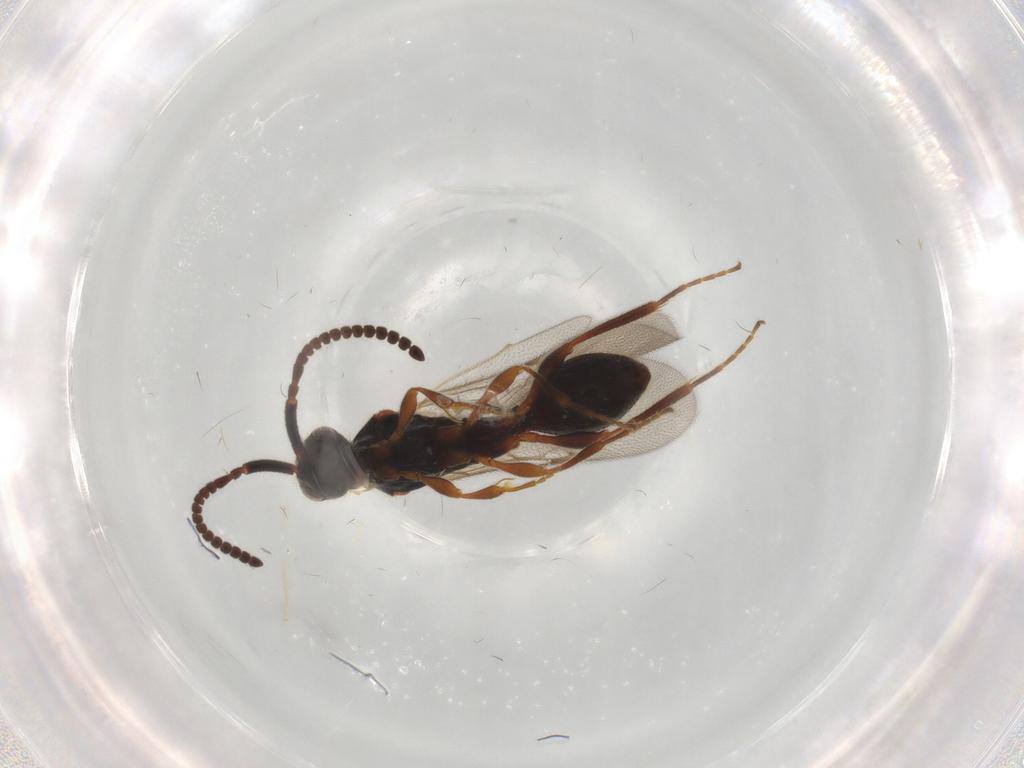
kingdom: Animalia
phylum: Arthropoda
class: Insecta
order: Hymenoptera
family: Diapriidae
